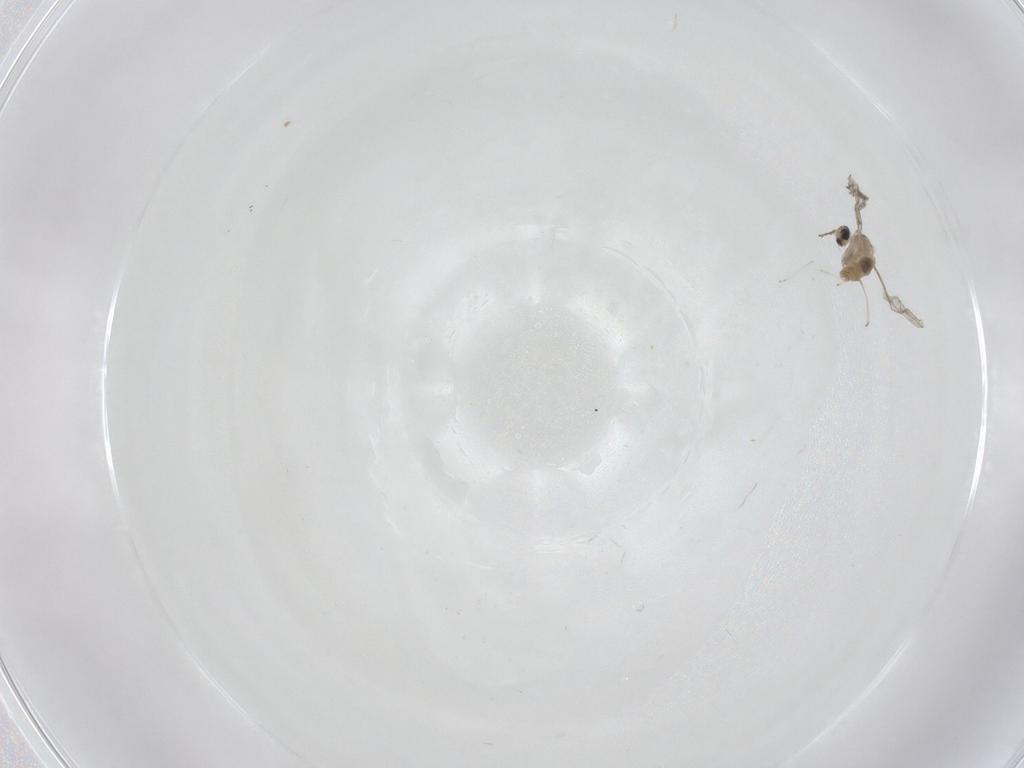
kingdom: Animalia
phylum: Arthropoda
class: Insecta
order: Diptera
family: Cecidomyiidae
